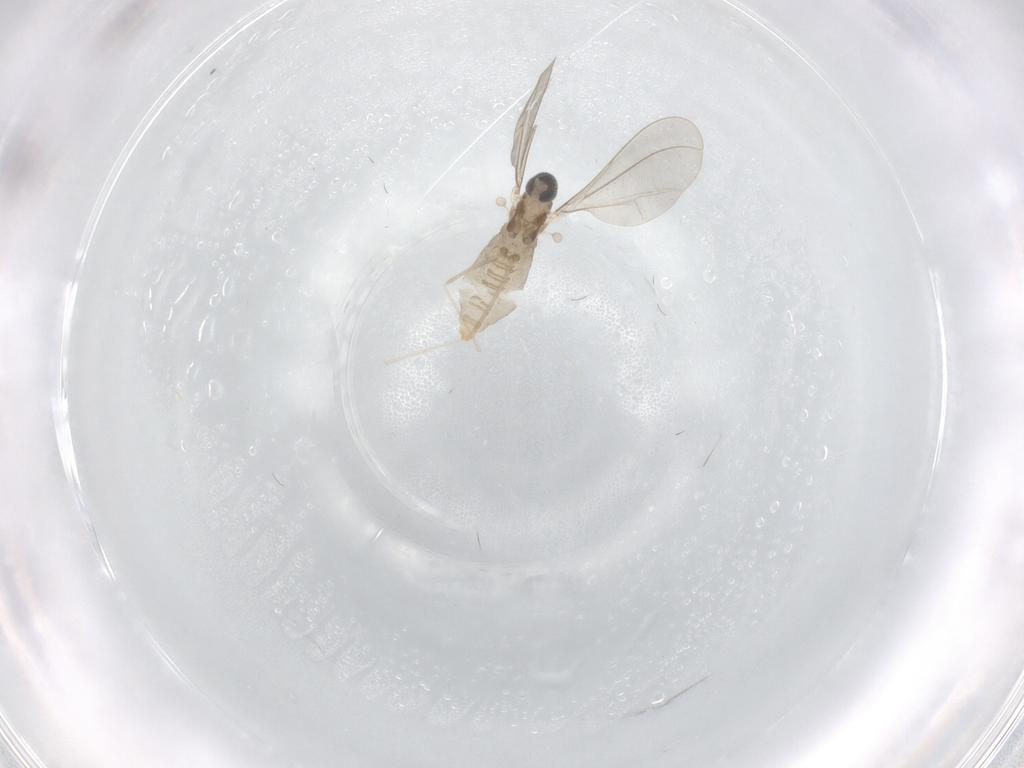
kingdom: Animalia
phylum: Arthropoda
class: Insecta
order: Diptera
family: Cecidomyiidae
